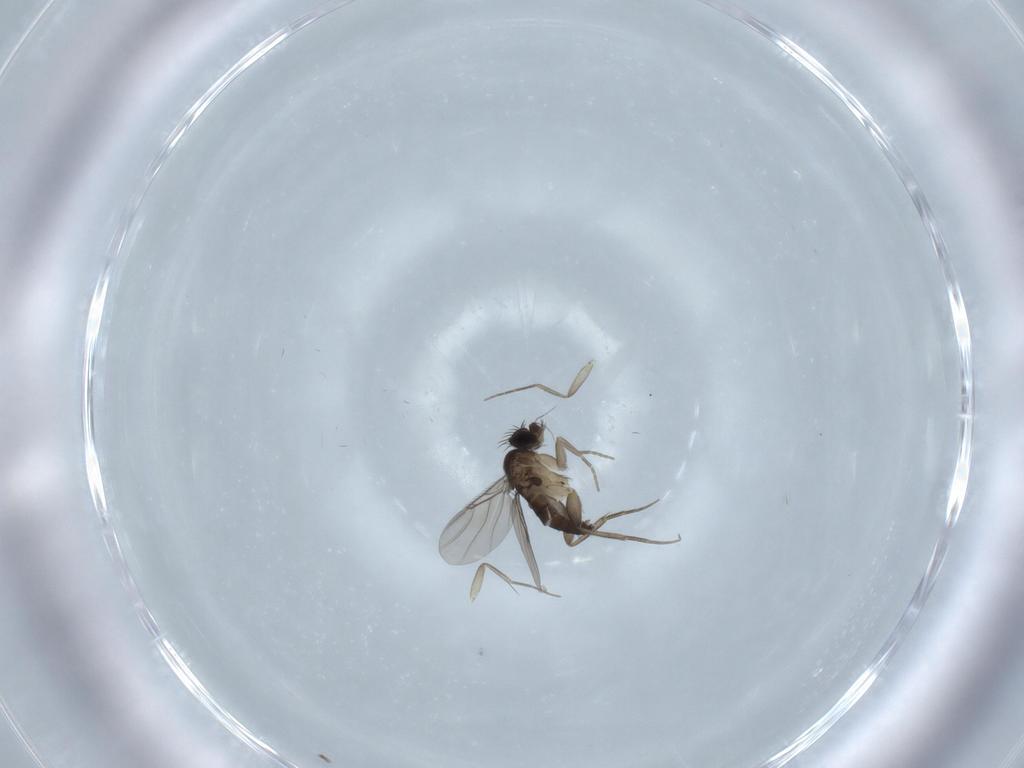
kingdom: Animalia
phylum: Arthropoda
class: Insecta
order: Diptera
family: Phoridae
